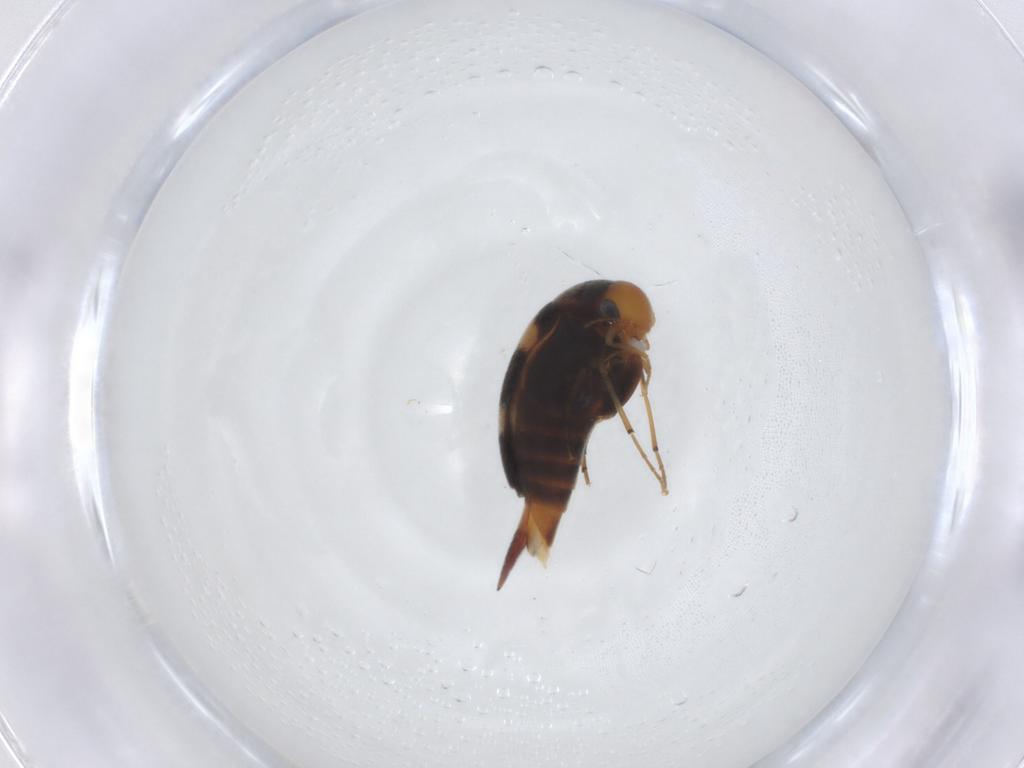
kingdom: Animalia
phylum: Arthropoda
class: Insecta
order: Coleoptera
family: Mordellidae
